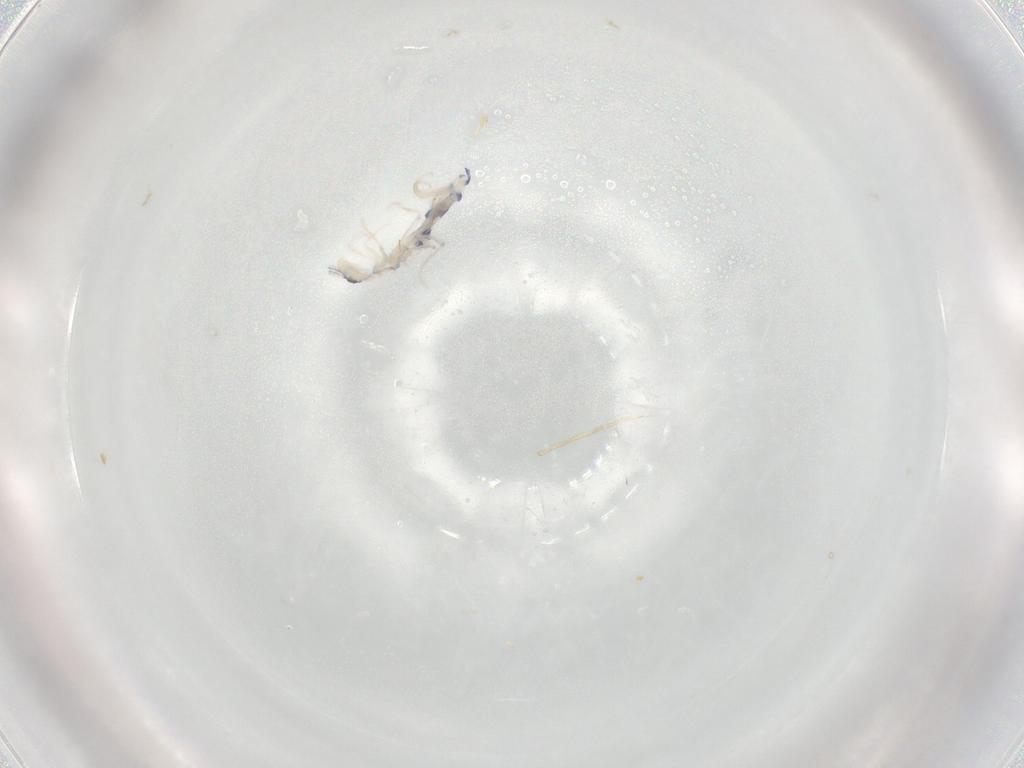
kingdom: Animalia
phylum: Arthropoda
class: Collembola
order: Entomobryomorpha
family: Entomobryidae
